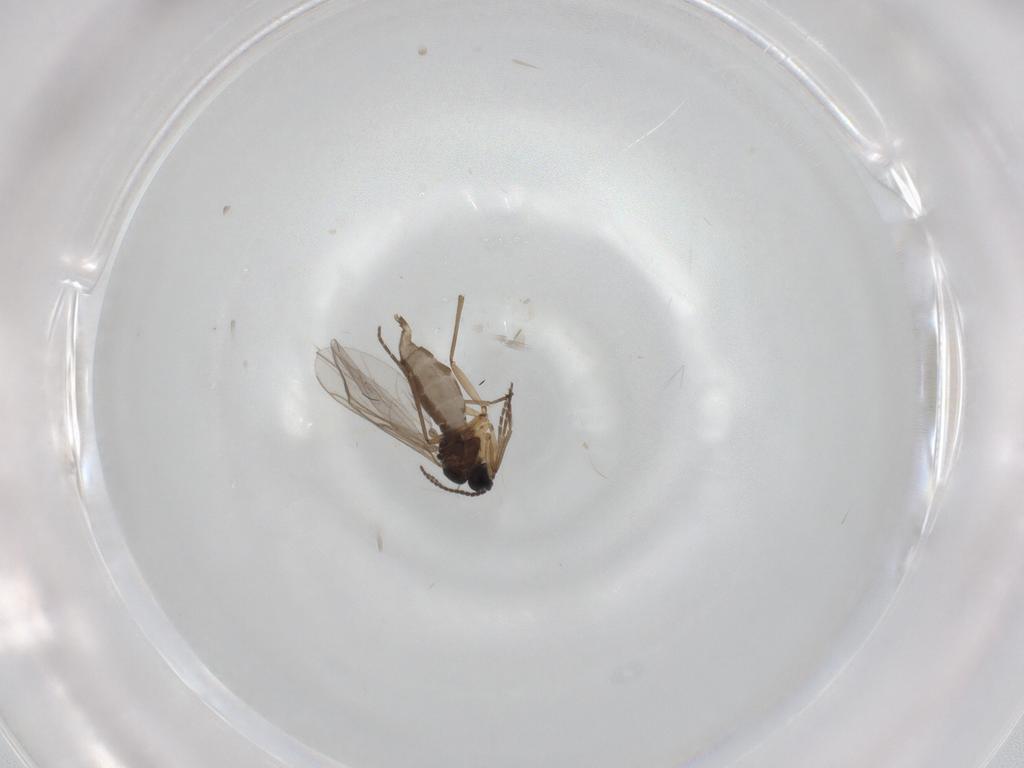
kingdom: Animalia
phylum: Arthropoda
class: Insecta
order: Diptera
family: Sciaridae
